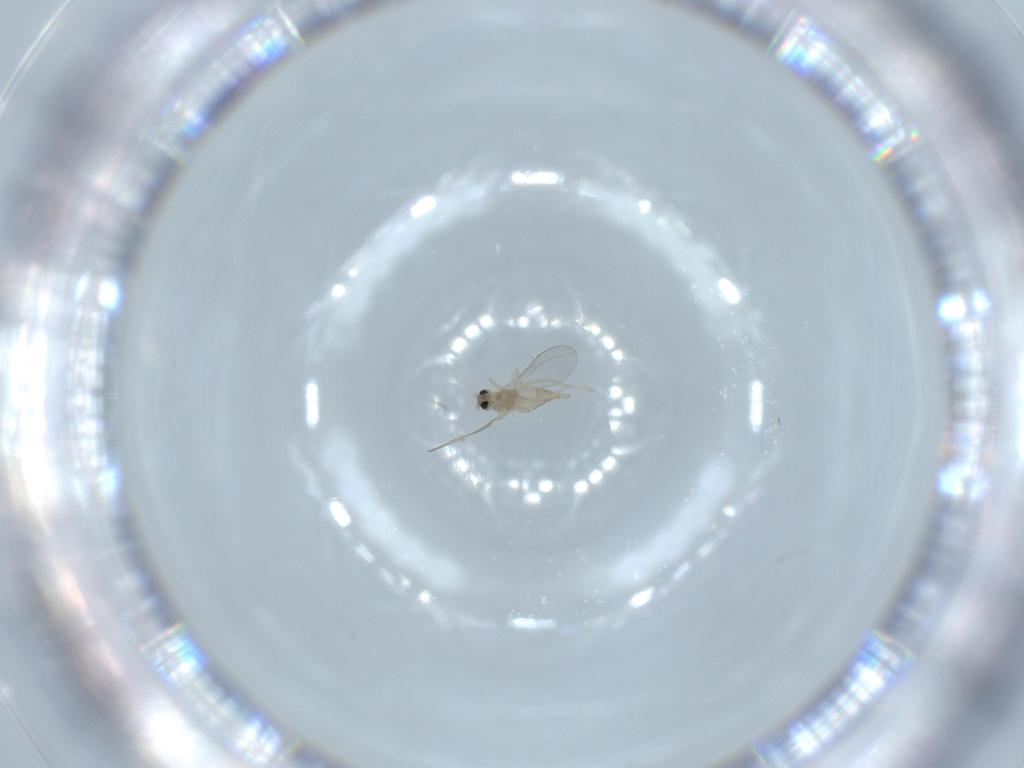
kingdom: Animalia
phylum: Arthropoda
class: Insecta
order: Diptera
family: Cecidomyiidae
